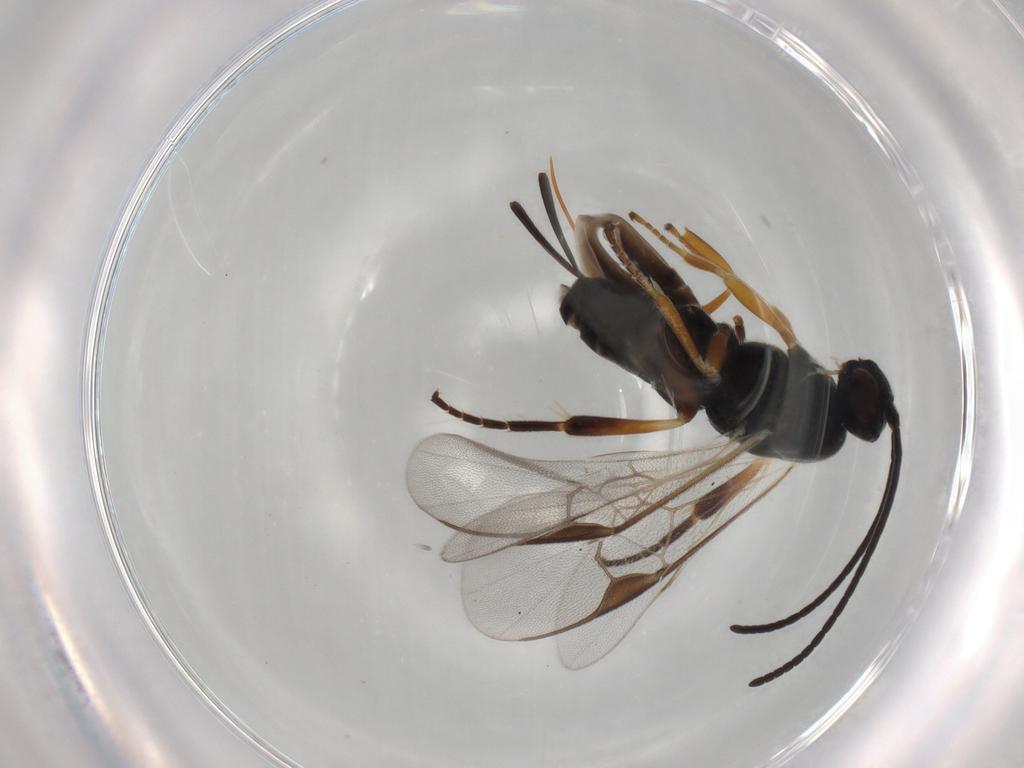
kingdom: Animalia
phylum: Arthropoda
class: Insecta
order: Hymenoptera
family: Braconidae
